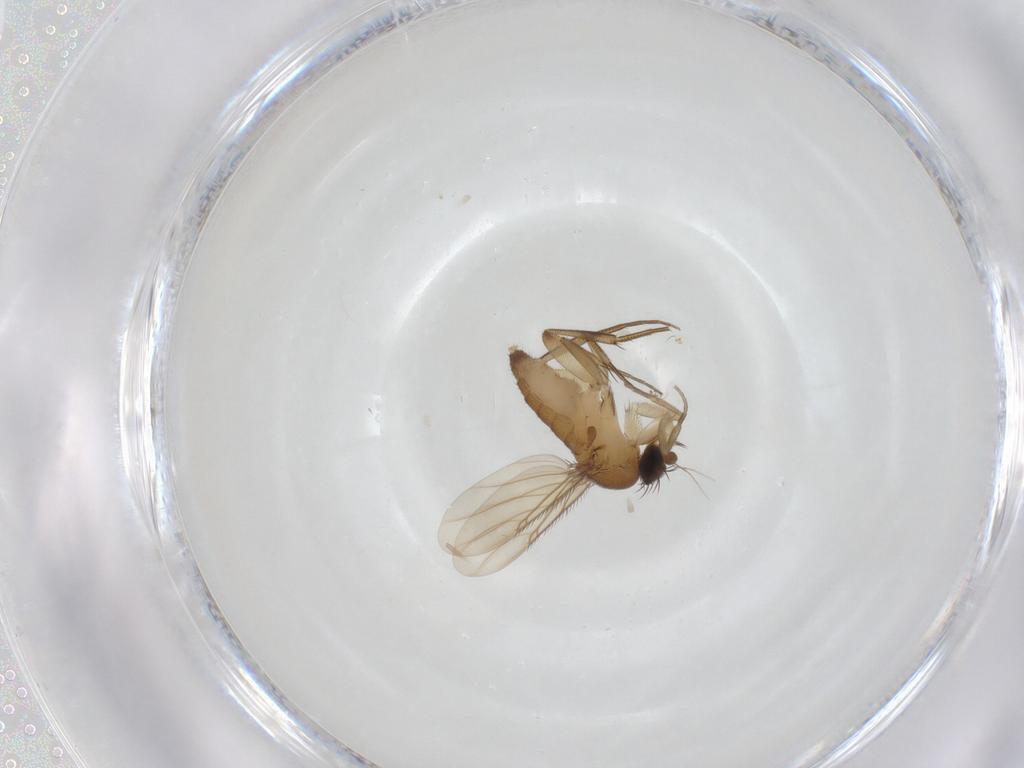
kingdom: Animalia
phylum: Arthropoda
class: Insecta
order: Diptera
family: Phoridae
